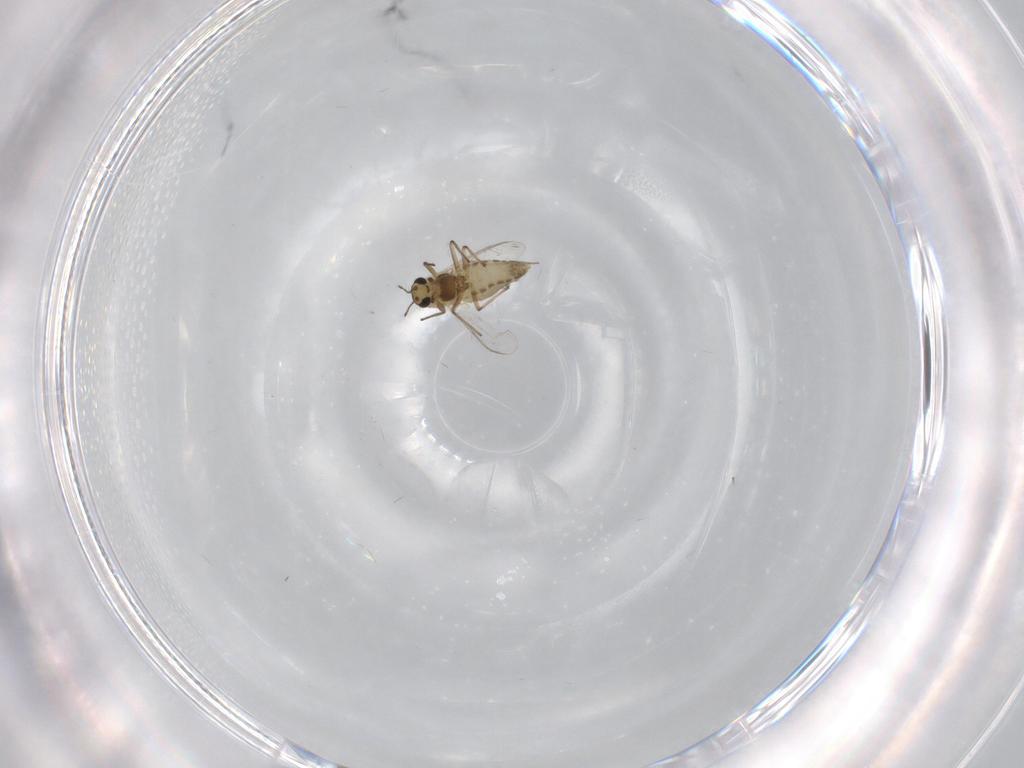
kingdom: Animalia
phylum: Arthropoda
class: Insecta
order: Diptera
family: Chironomidae
